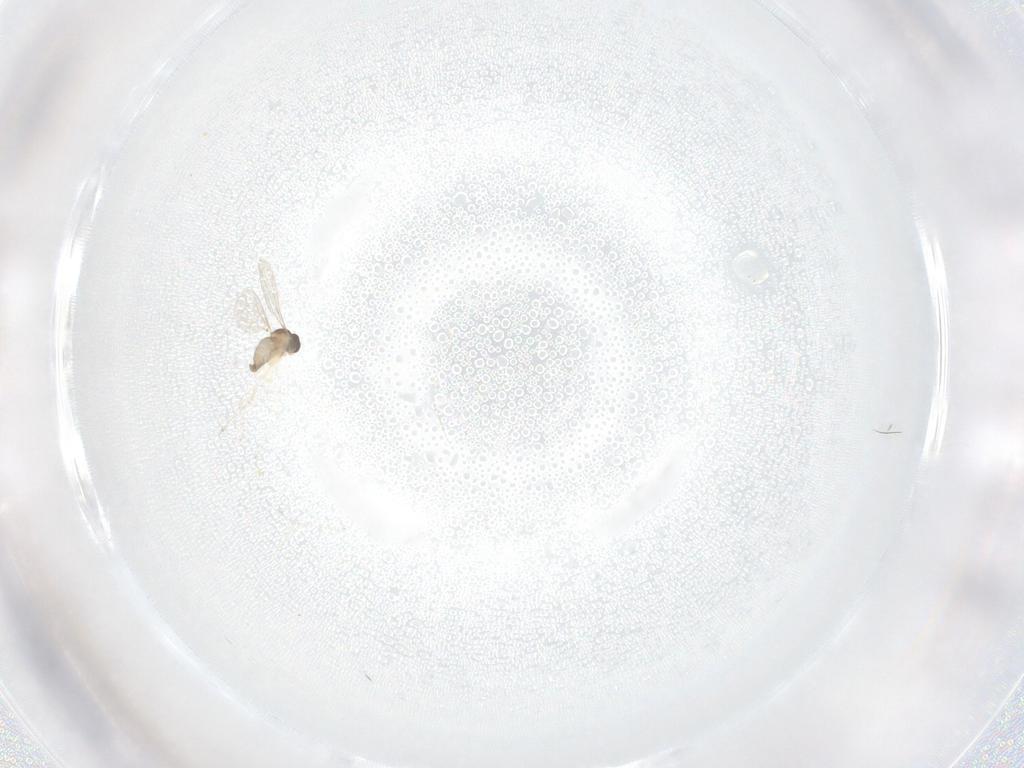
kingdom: Animalia
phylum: Arthropoda
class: Insecta
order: Diptera
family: Cecidomyiidae
